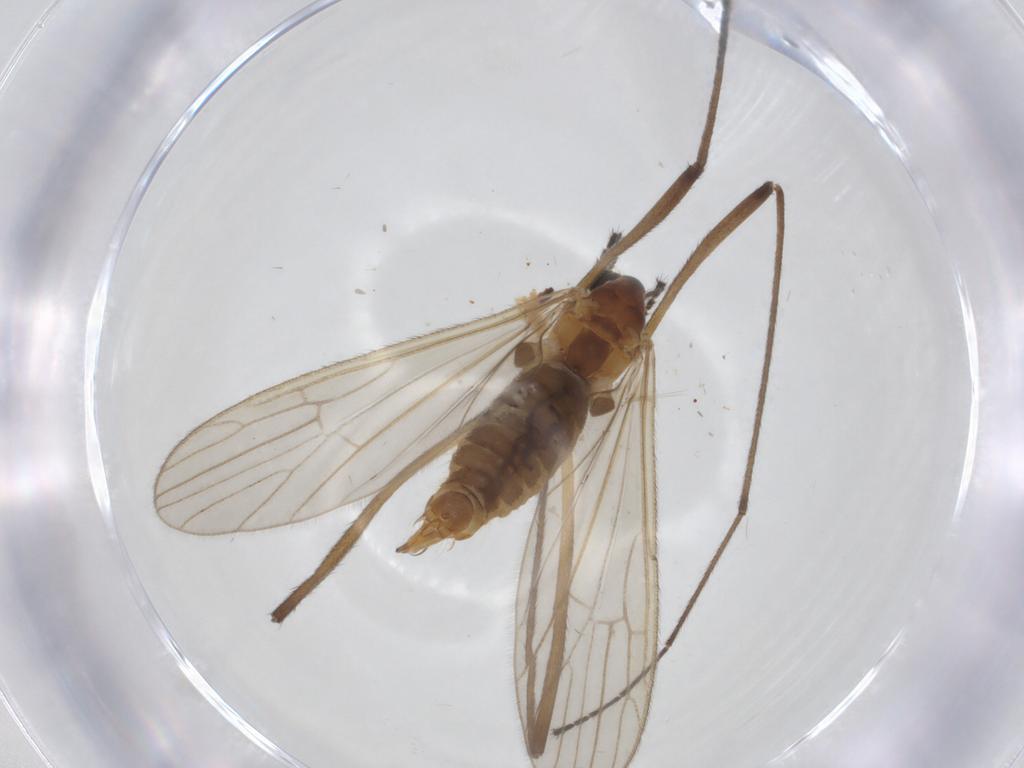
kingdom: Animalia
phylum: Arthropoda
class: Insecta
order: Diptera
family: Limoniidae
